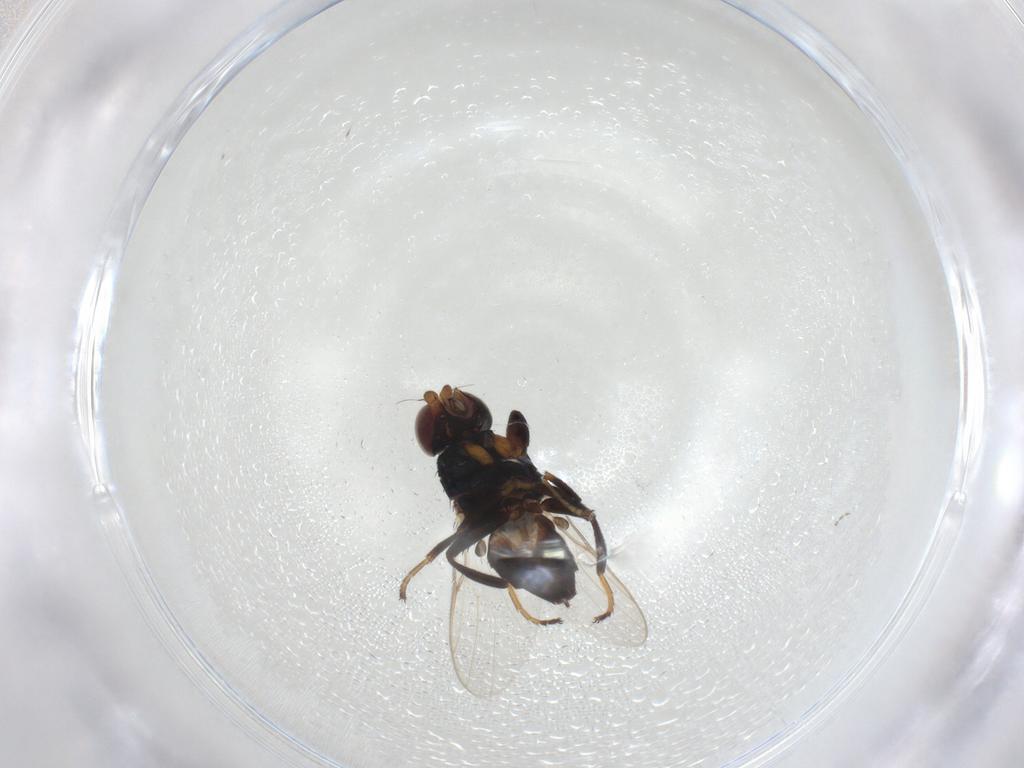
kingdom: Animalia
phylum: Arthropoda
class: Insecta
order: Diptera
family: Chloropidae
